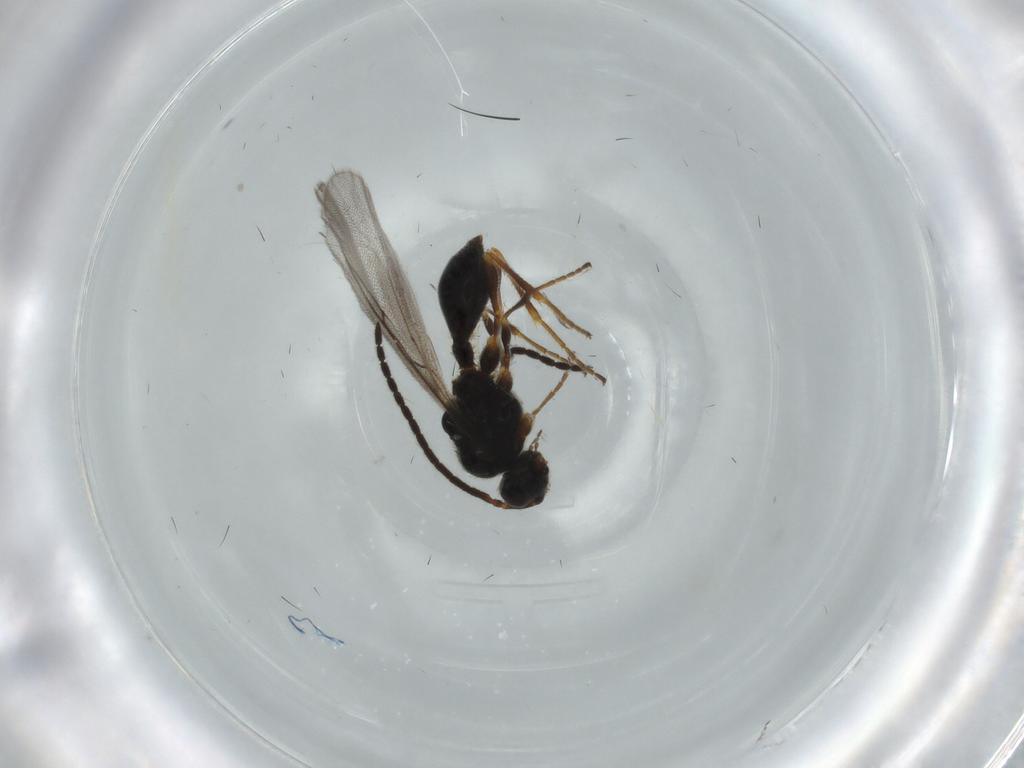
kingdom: Animalia
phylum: Arthropoda
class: Insecta
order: Hymenoptera
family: Diapriidae
